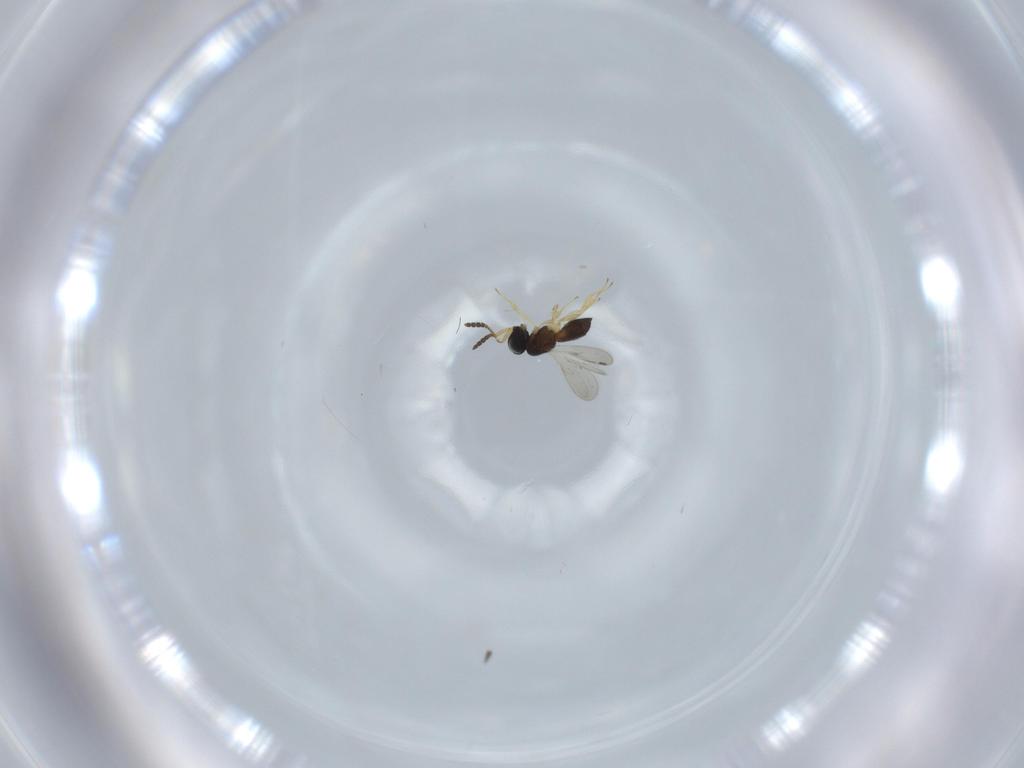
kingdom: Animalia
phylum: Arthropoda
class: Insecta
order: Hymenoptera
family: Scelionidae
